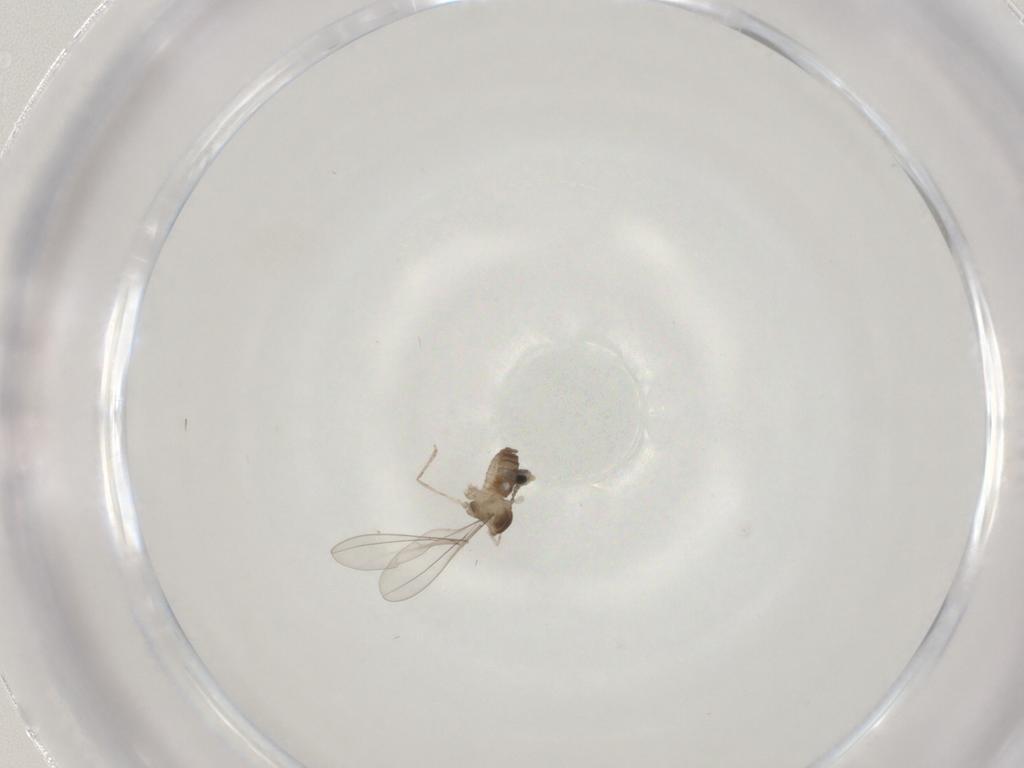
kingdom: Animalia
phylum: Arthropoda
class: Insecta
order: Diptera
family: Cecidomyiidae
